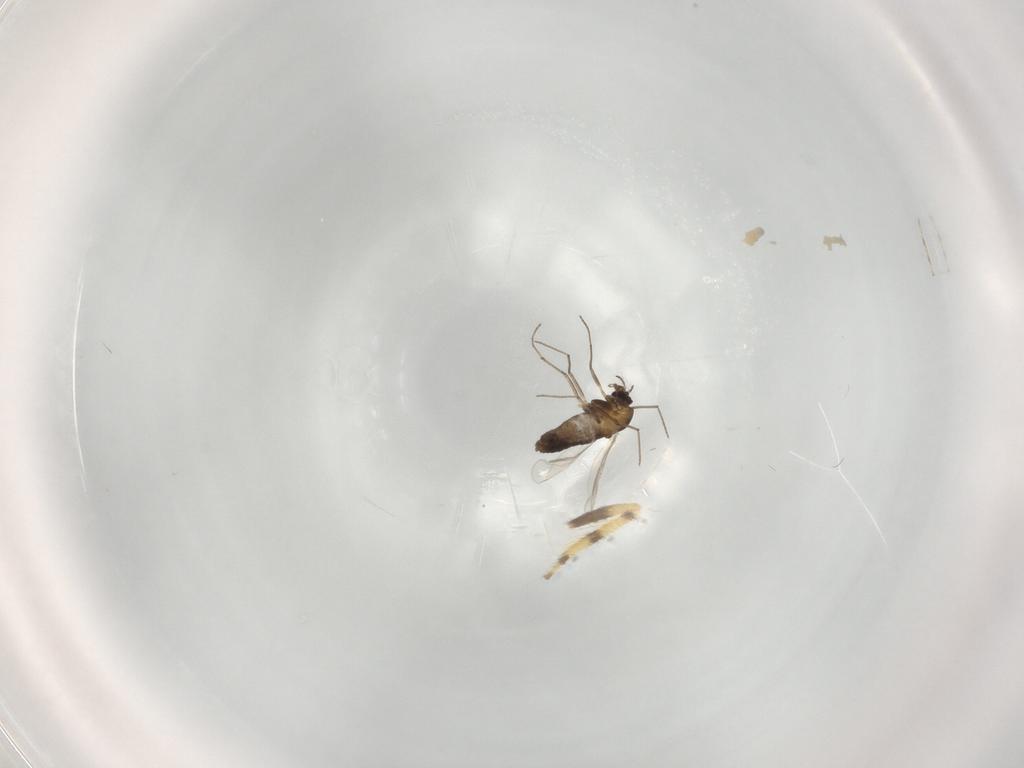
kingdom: Animalia
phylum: Arthropoda
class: Insecta
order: Diptera
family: Chironomidae
